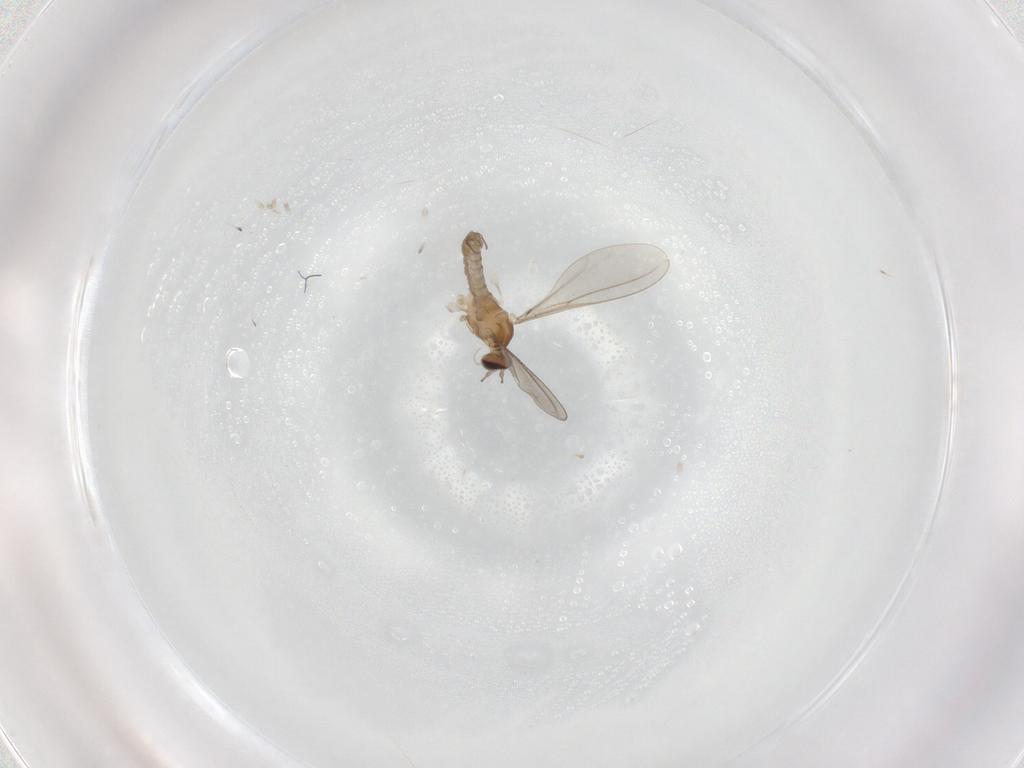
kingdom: Animalia
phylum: Arthropoda
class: Insecta
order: Diptera
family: Cecidomyiidae
